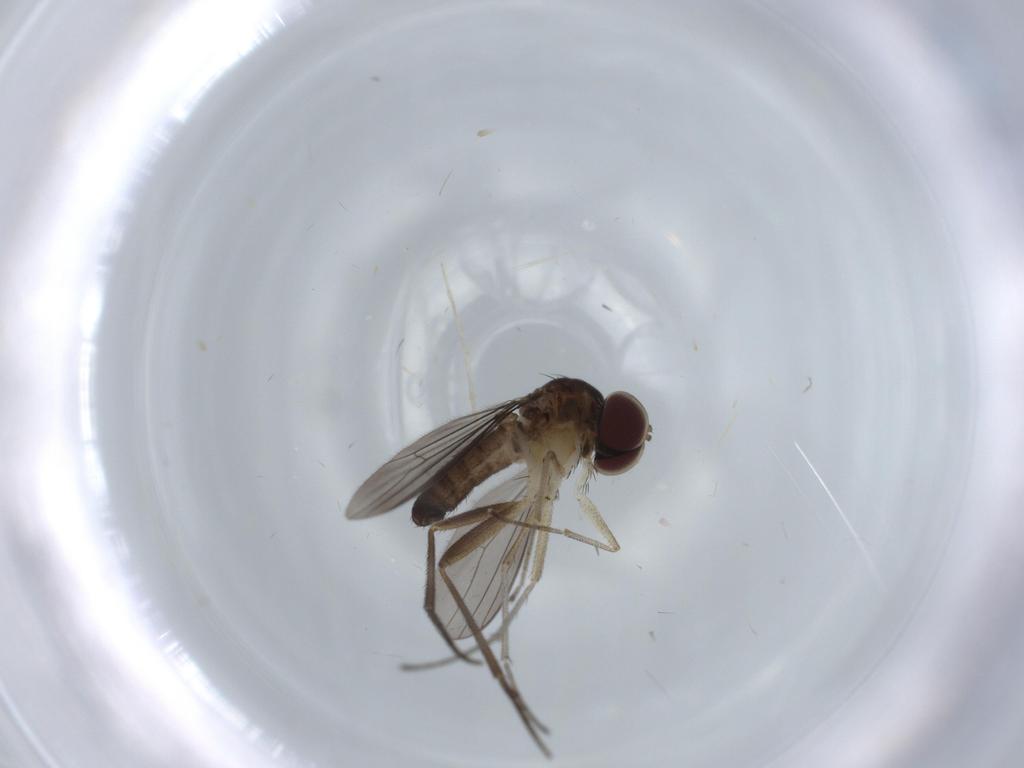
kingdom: Animalia
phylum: Arthropoda
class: Insecta
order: Diptera
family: Dolichopodidae
